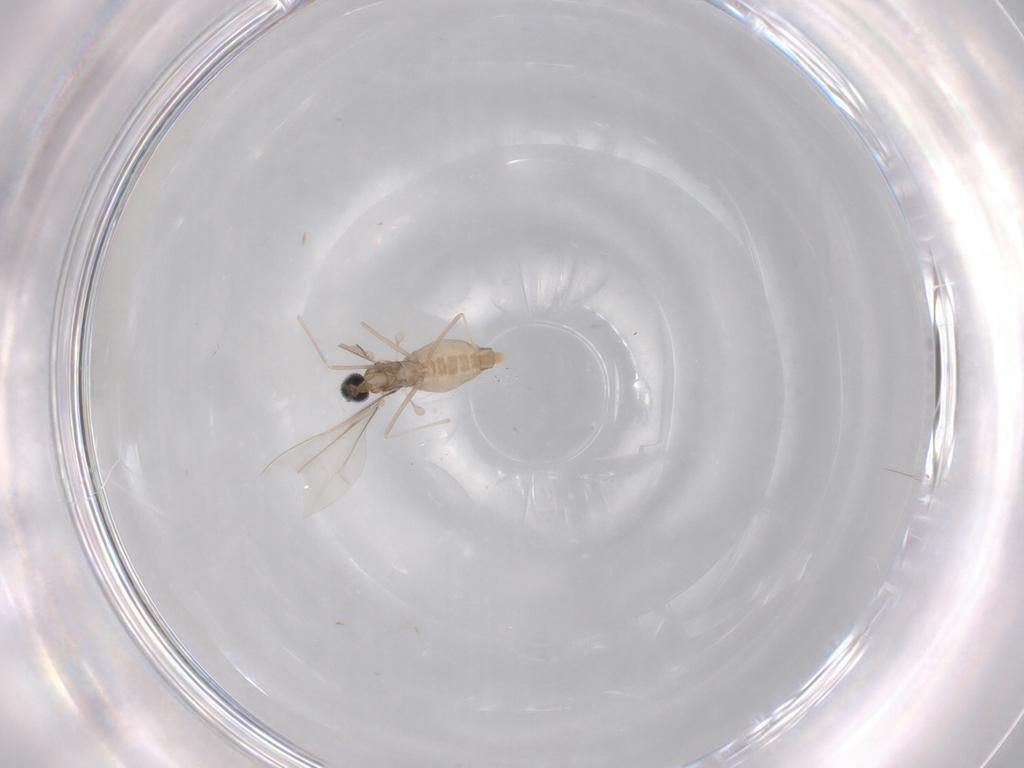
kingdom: Animalia
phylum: Arthropoda
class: Insecta
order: Diptera
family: Cecidomyiidae
